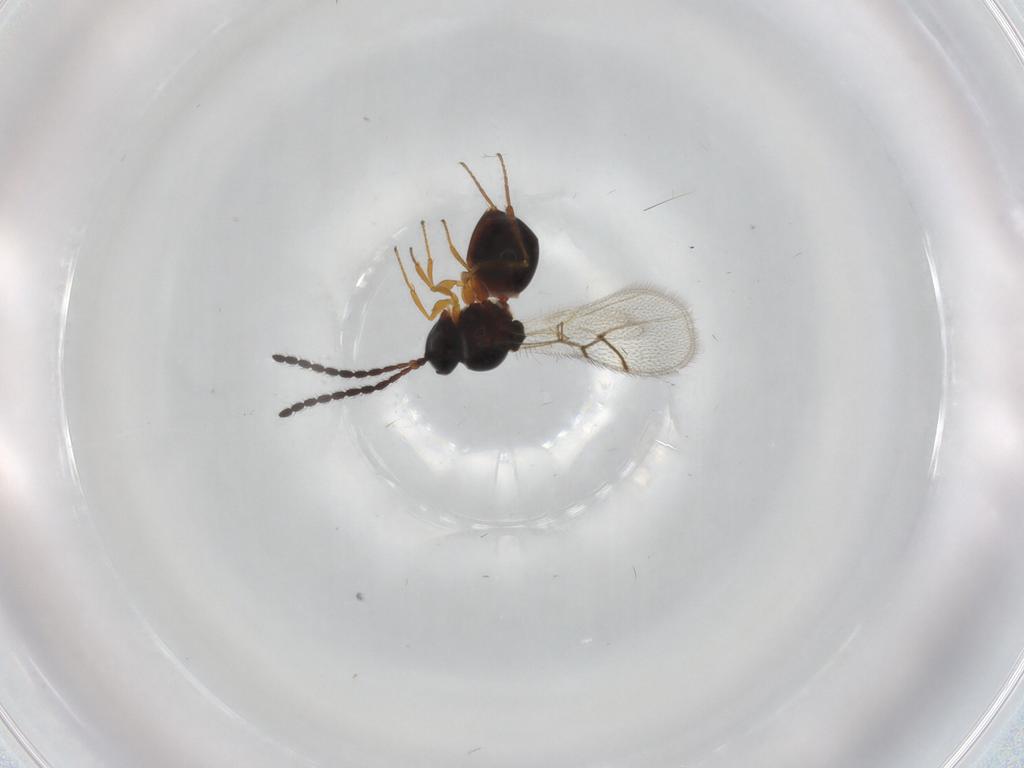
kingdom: Animalia
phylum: Arthropoda
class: Insecta
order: Hymenoptera
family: Figitidae
